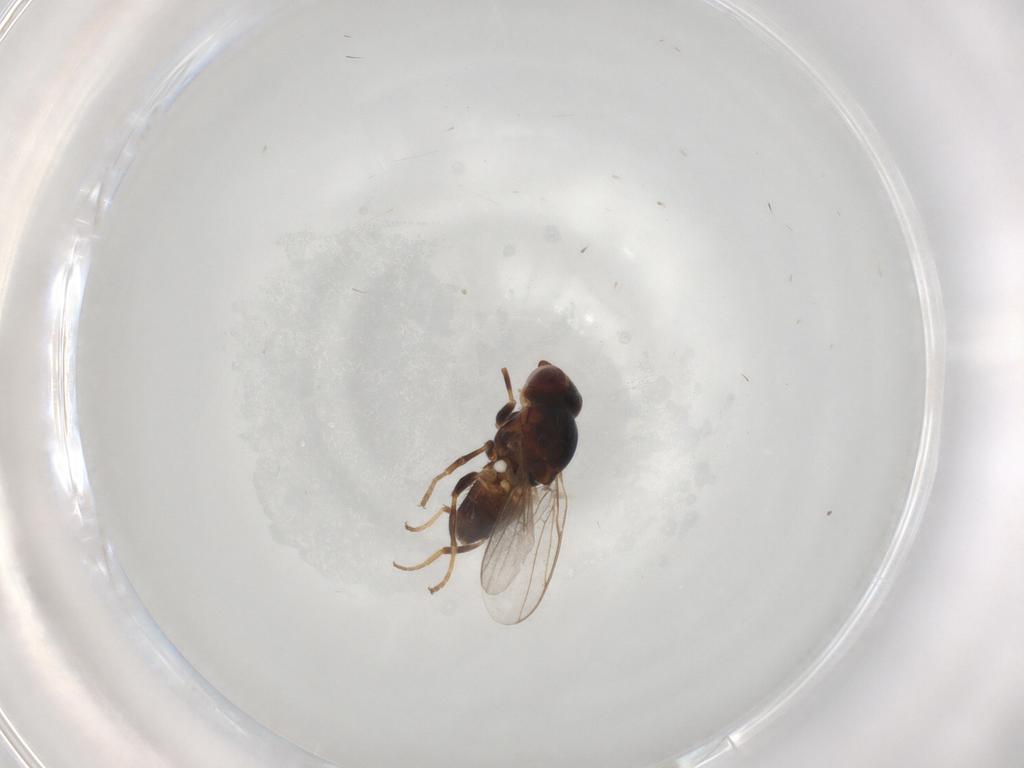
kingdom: Animalia
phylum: Arthropoda
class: Insecta
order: Diptera
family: Chloropidae
